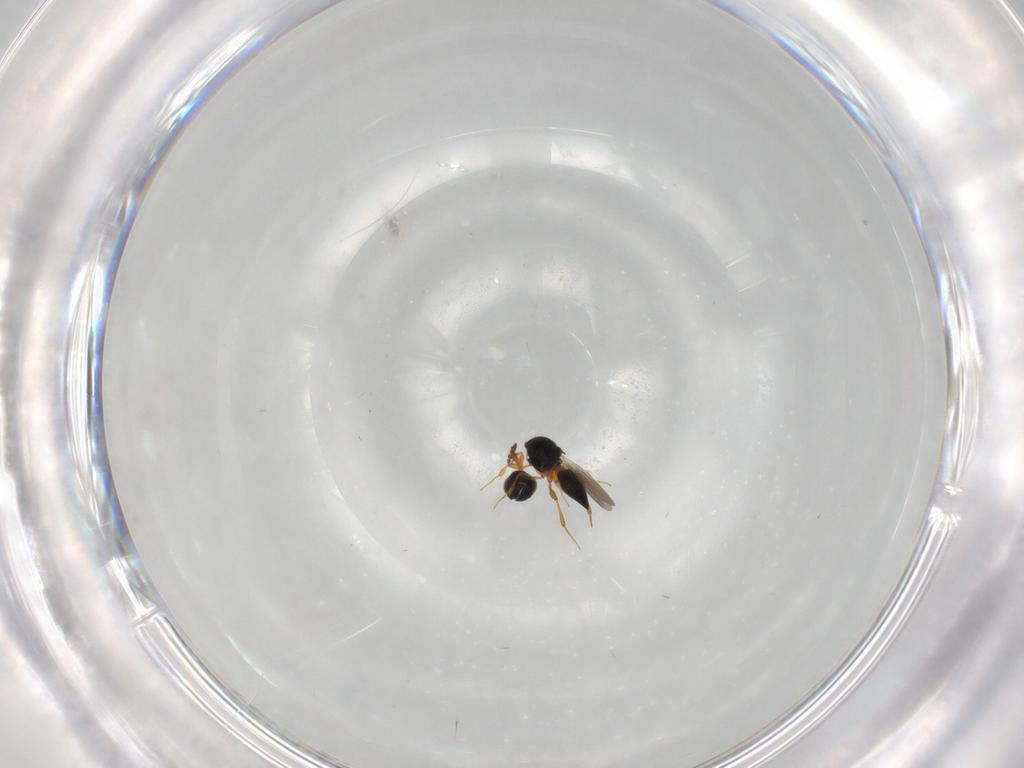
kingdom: Animalia
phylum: Arthropoda
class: Insecta
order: Hymenoptera
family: Platygastridae
